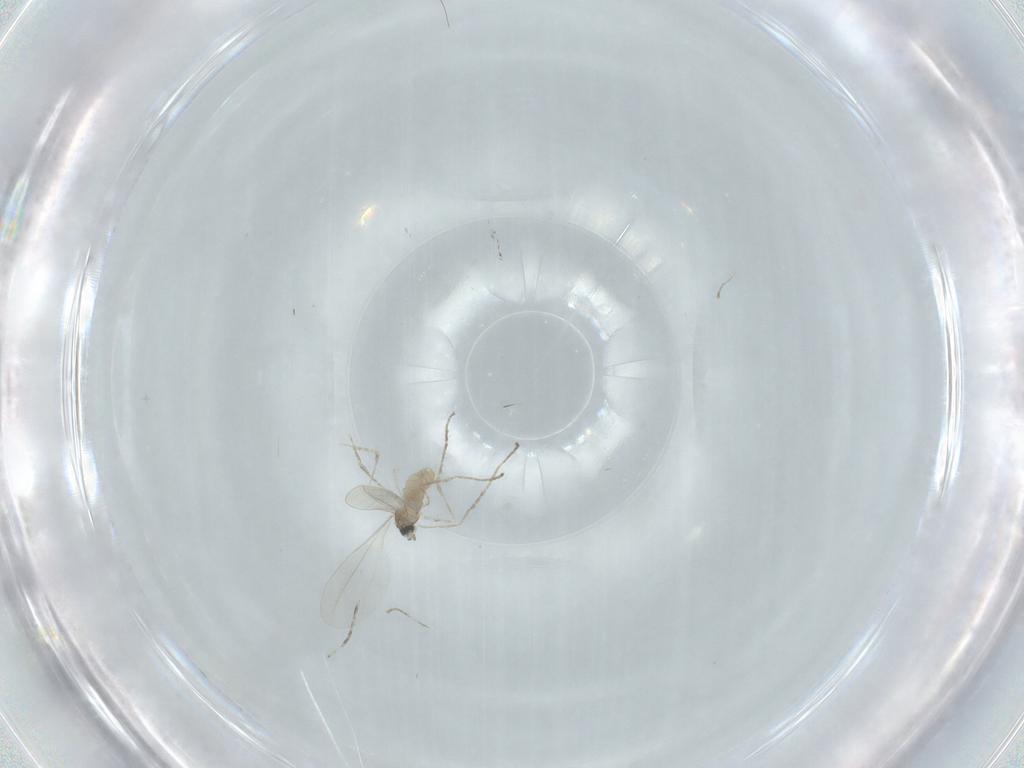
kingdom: Animalia
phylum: Arthropoda
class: Insecta
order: Diptera
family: Cecidomyiidae
